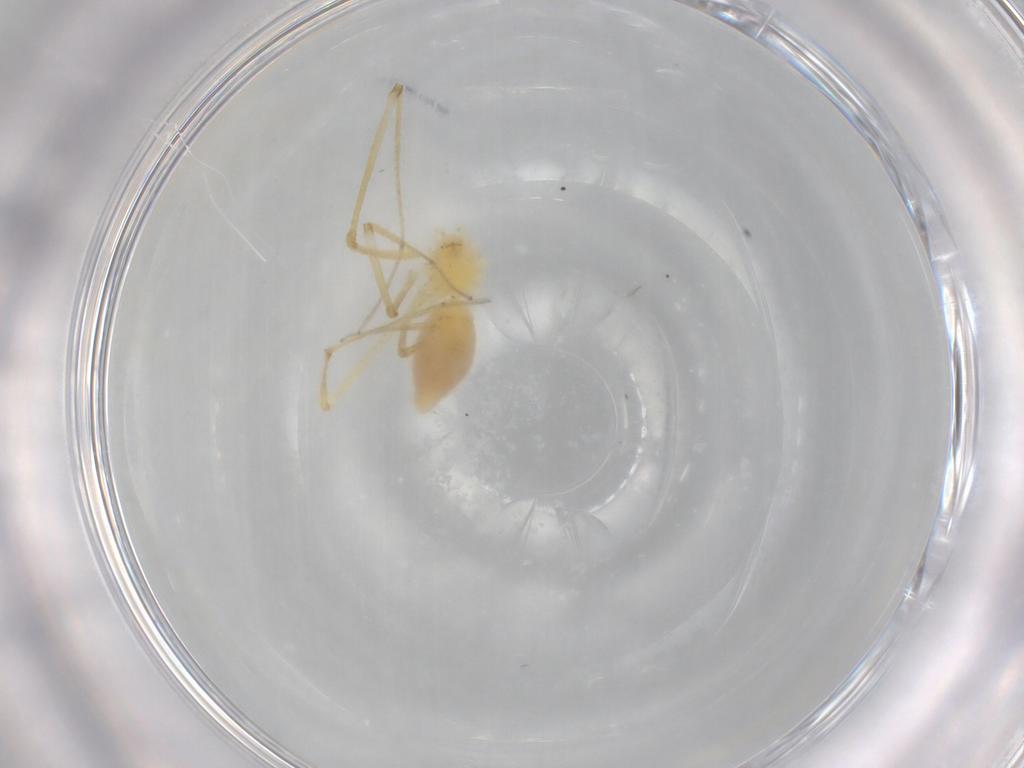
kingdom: Animalia
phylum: Arthropoda
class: Arachnida
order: Araneae
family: Pholcidae
